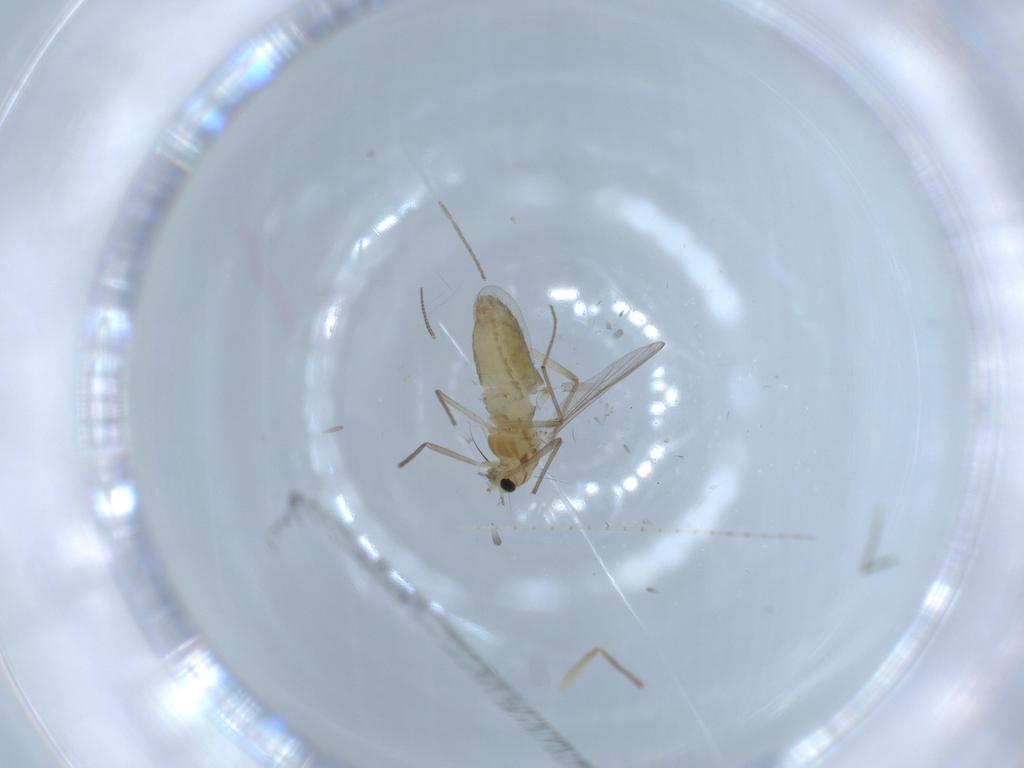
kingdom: Animalia
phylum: Arthropoda
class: Insecta
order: Diptera
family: Chironomidae
